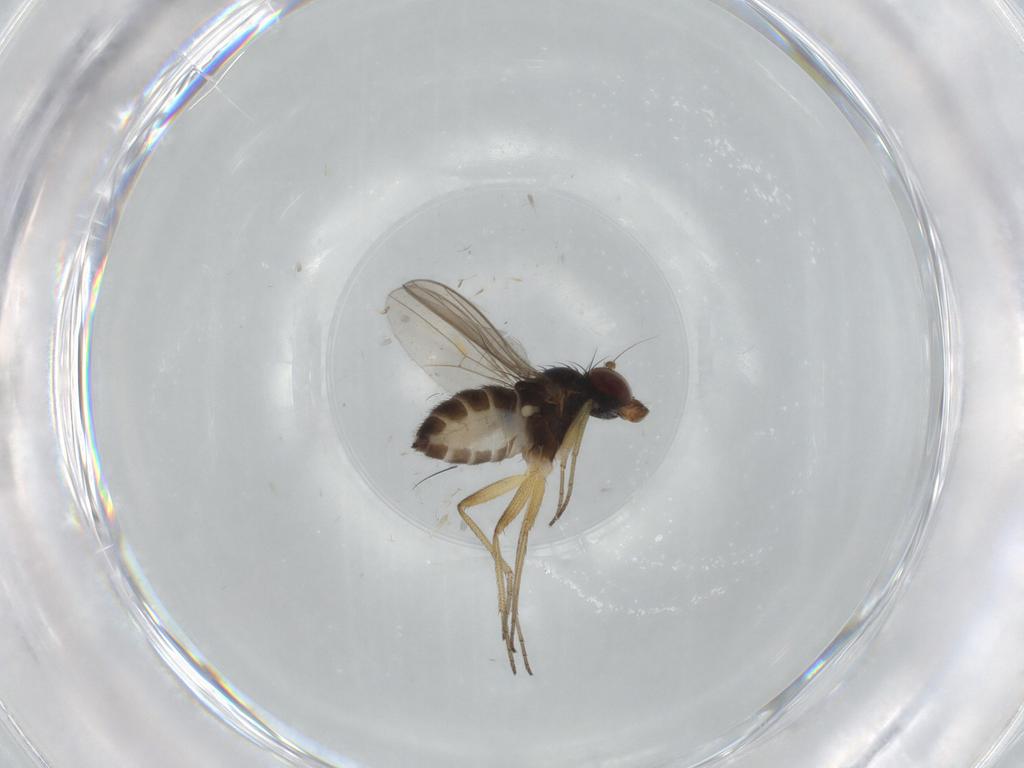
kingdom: Animalia
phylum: Arthropoda
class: Insecta
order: Diptera
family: Dolichopodidae
